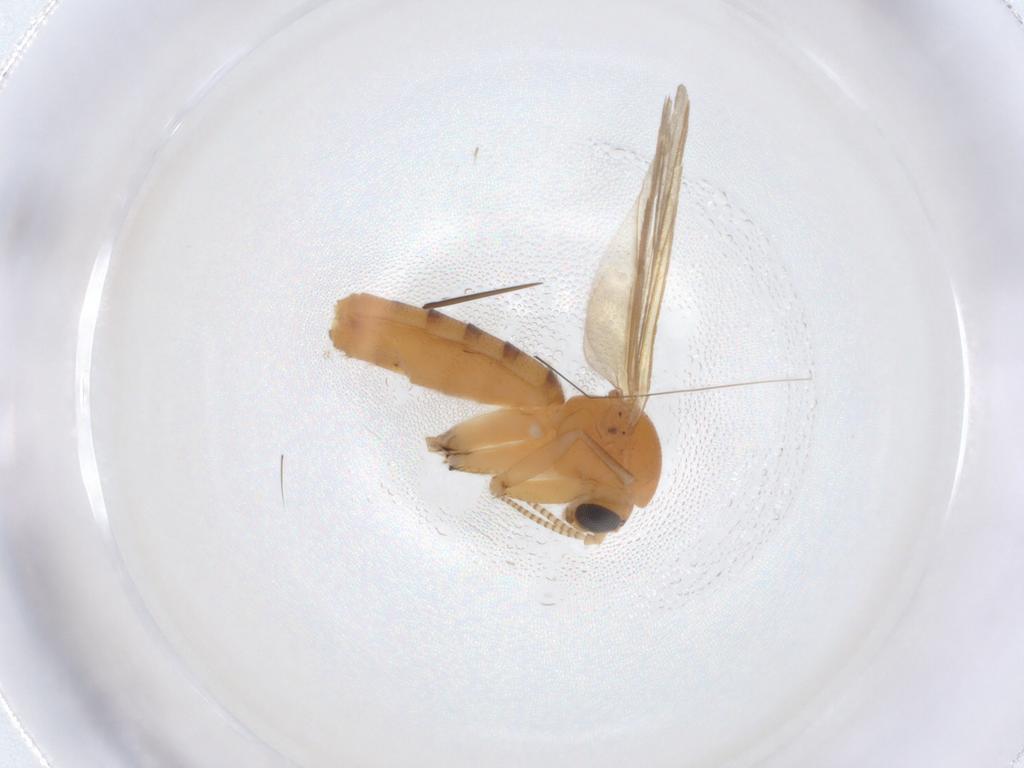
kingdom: Animalia
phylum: Arthropoda
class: Insecta
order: Diptera
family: Mycetophilidae
